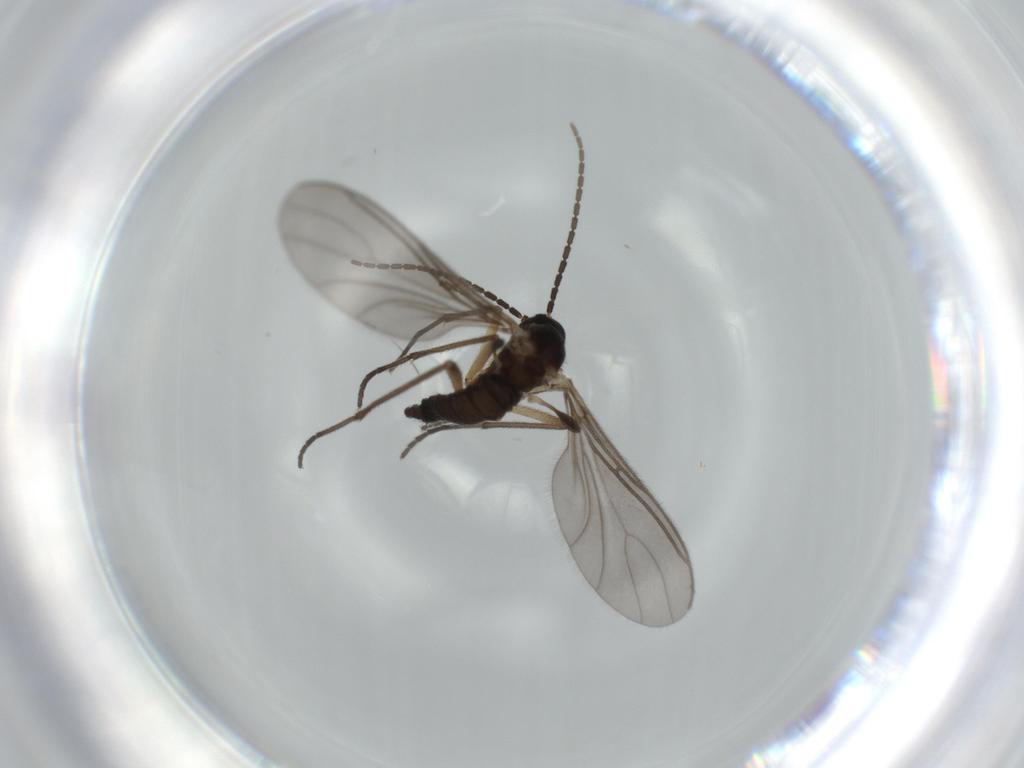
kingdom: Animalia
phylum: Arthropoda
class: Insecta
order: Diptera
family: Sciaridae
